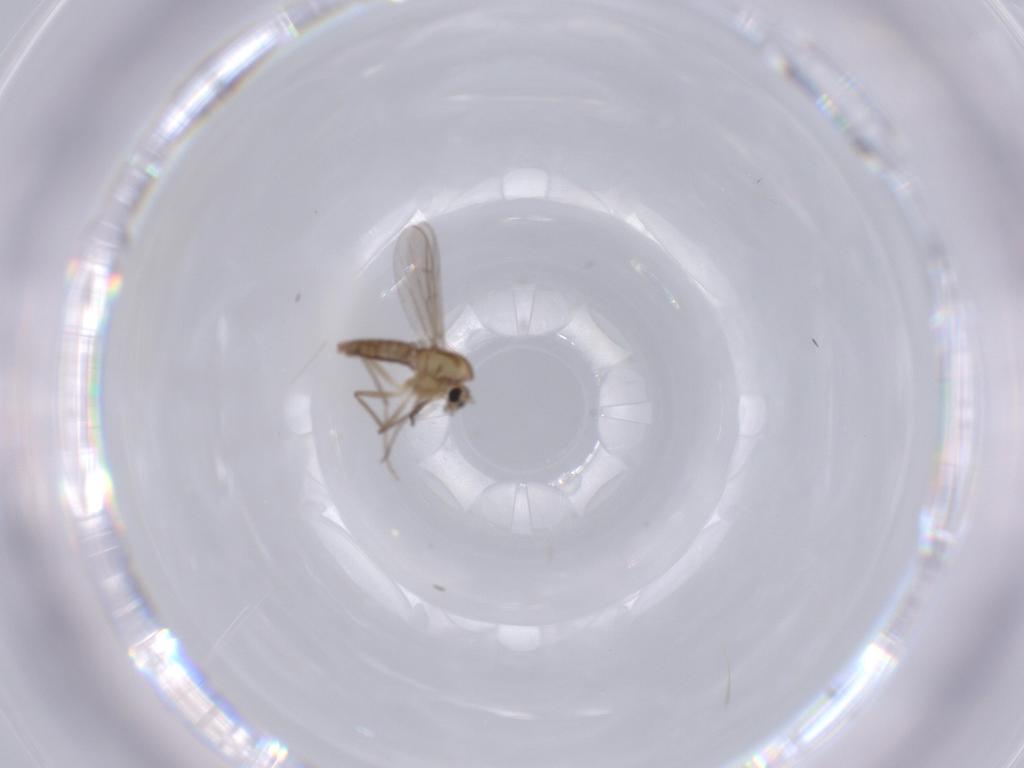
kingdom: Animalia
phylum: Arthropoda
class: Insecta
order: Diptera
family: Chironomidae
